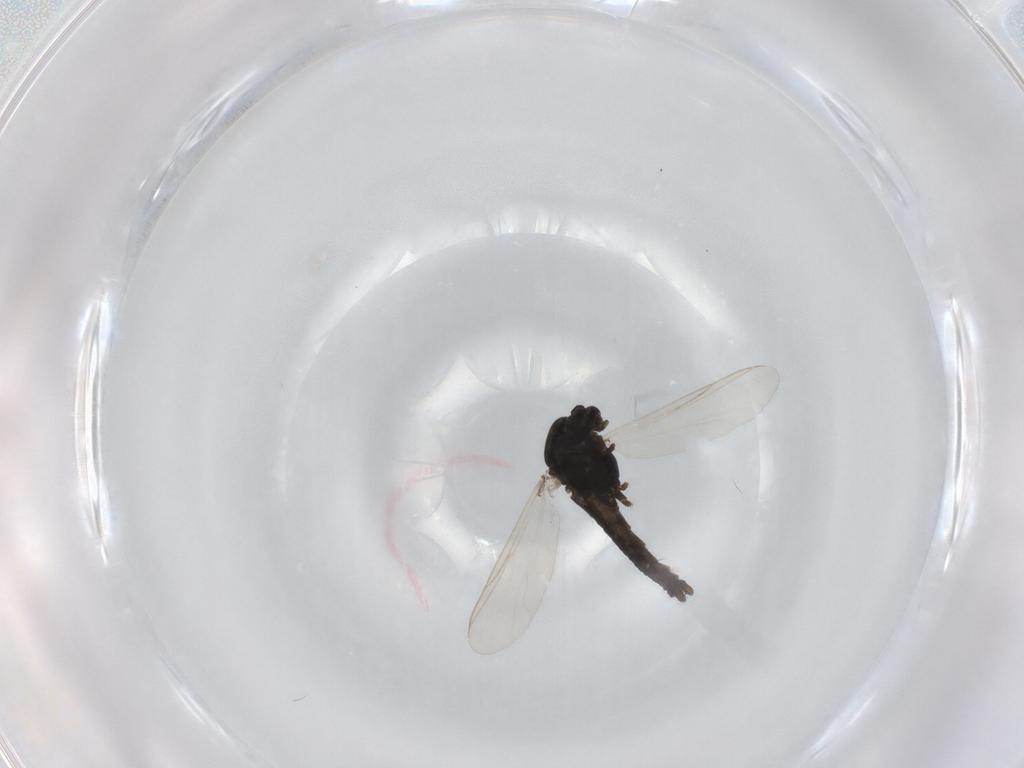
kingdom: Animalia
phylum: Arthropoda
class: Insecta
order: Diptera
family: Chironomidae
